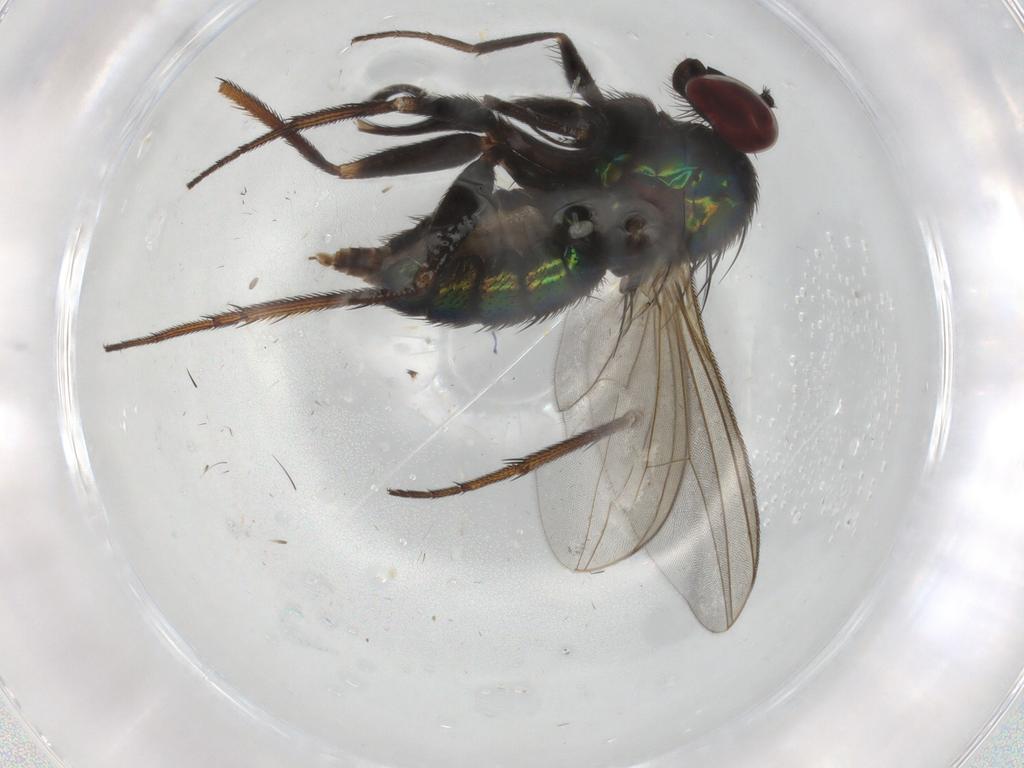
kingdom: Animalia
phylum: Arthropoda
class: Insecta
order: Diptera
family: Dolichopodidae
